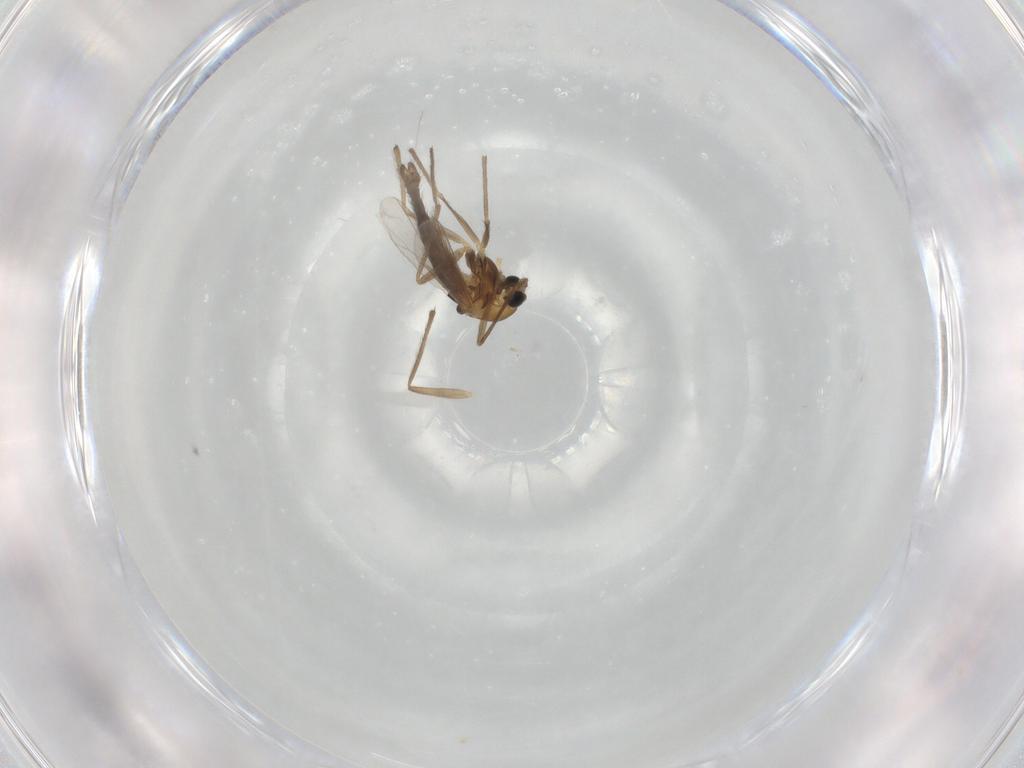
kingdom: Animalia
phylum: Arthropoda
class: Insecta
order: Diptera
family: Chironomidae
